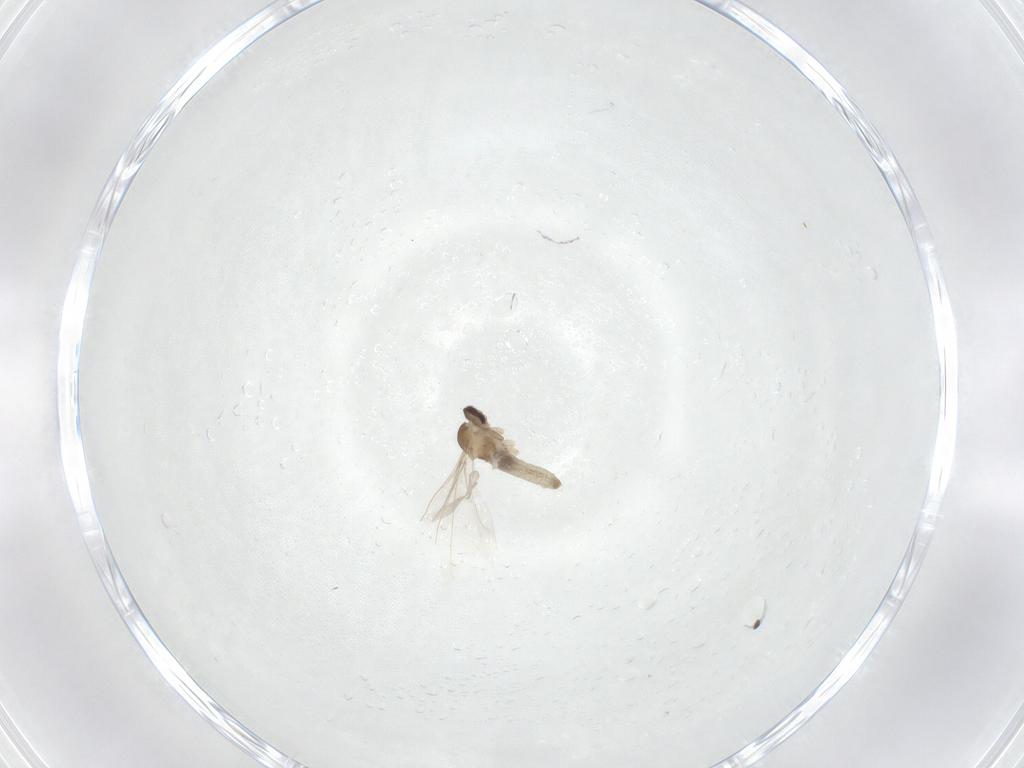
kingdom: Animalia
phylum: Arthropoda
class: Insecta
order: Diptera
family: Cecidomyiidae
